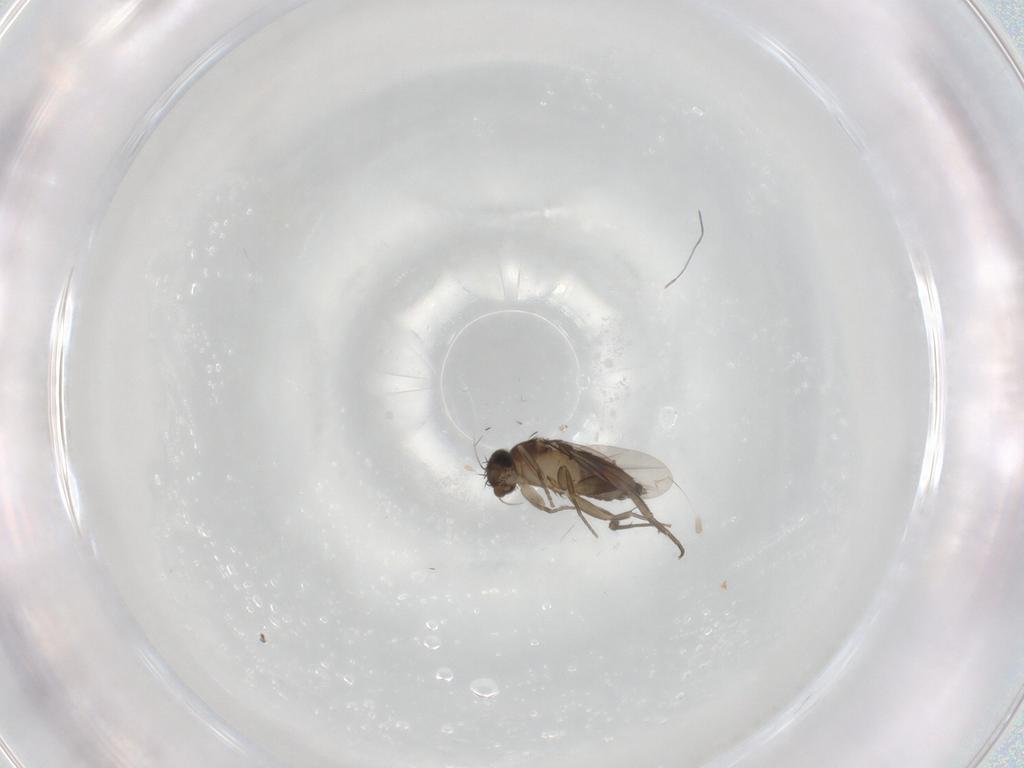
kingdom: Animalia
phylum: Arthropoda
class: Insecta
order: Diptera
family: Phoridae
